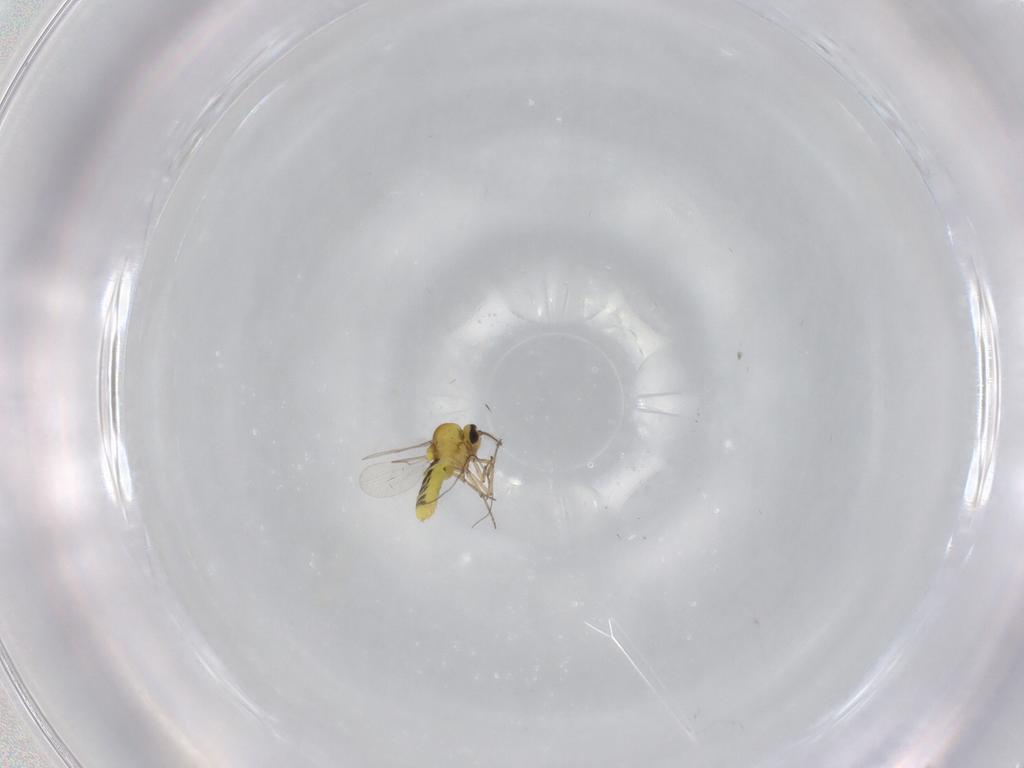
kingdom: Animalia
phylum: Arthropoda
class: Insecta
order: Diptera
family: Ceratopogonidae
